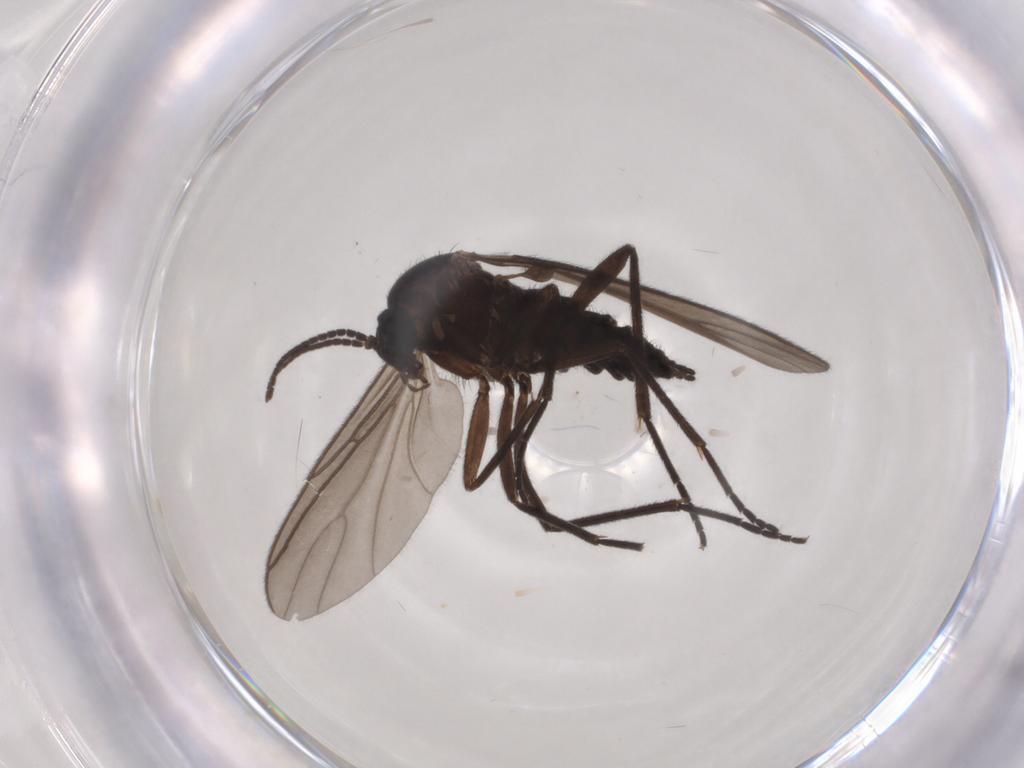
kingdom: Animalia
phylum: Arthropoda
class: Insecta
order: Diptera
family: Sciaridae
